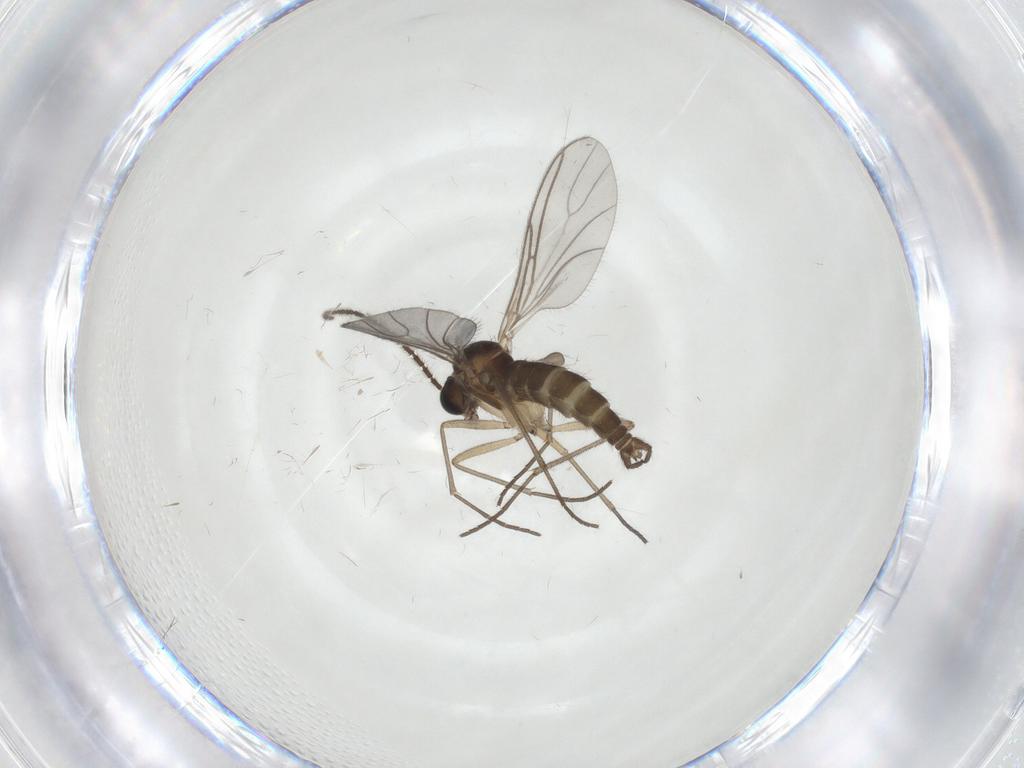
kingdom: Animalia
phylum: Arthropoda
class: Insecta
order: Diptera
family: Sciaridae
